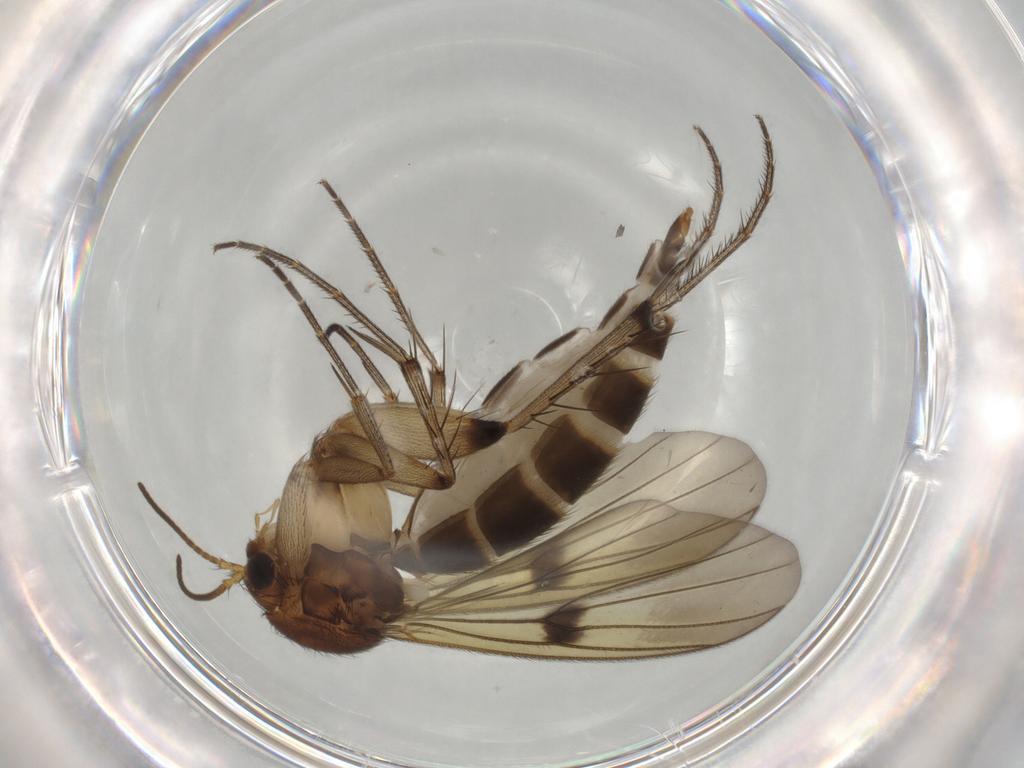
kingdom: Animalia
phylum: Arthropoda
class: Insecta
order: Diptera
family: Mycetophilidae
